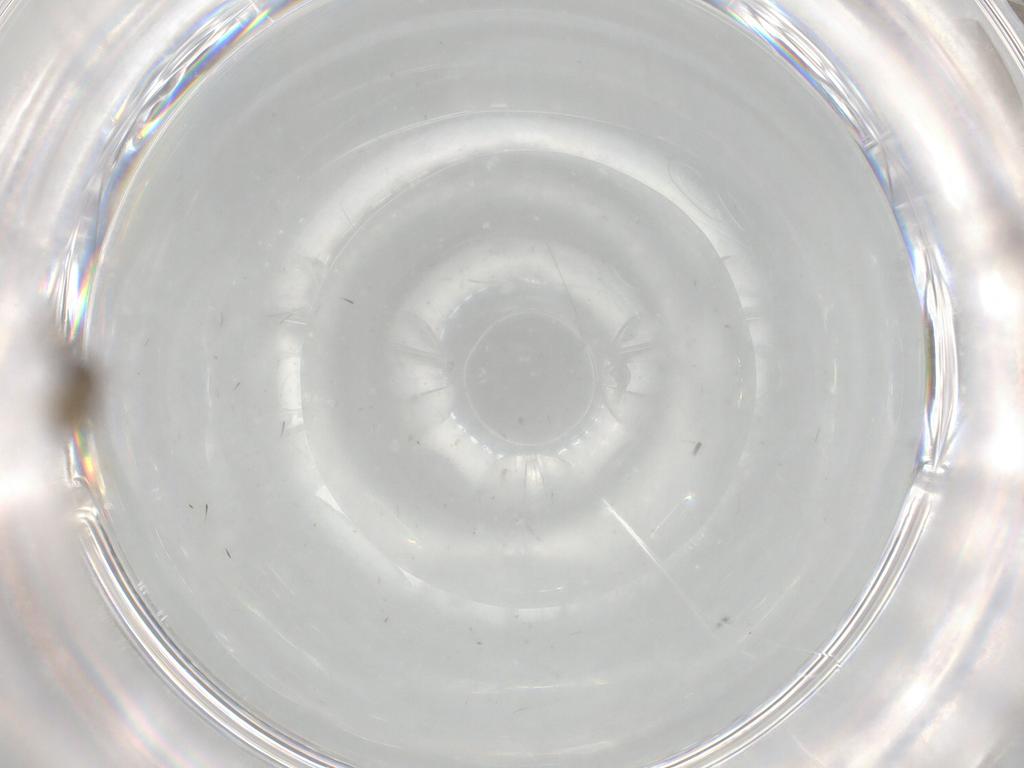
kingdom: Animalia
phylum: Arthropoda
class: Insecta
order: Diptera
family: Cecidomyiidae
